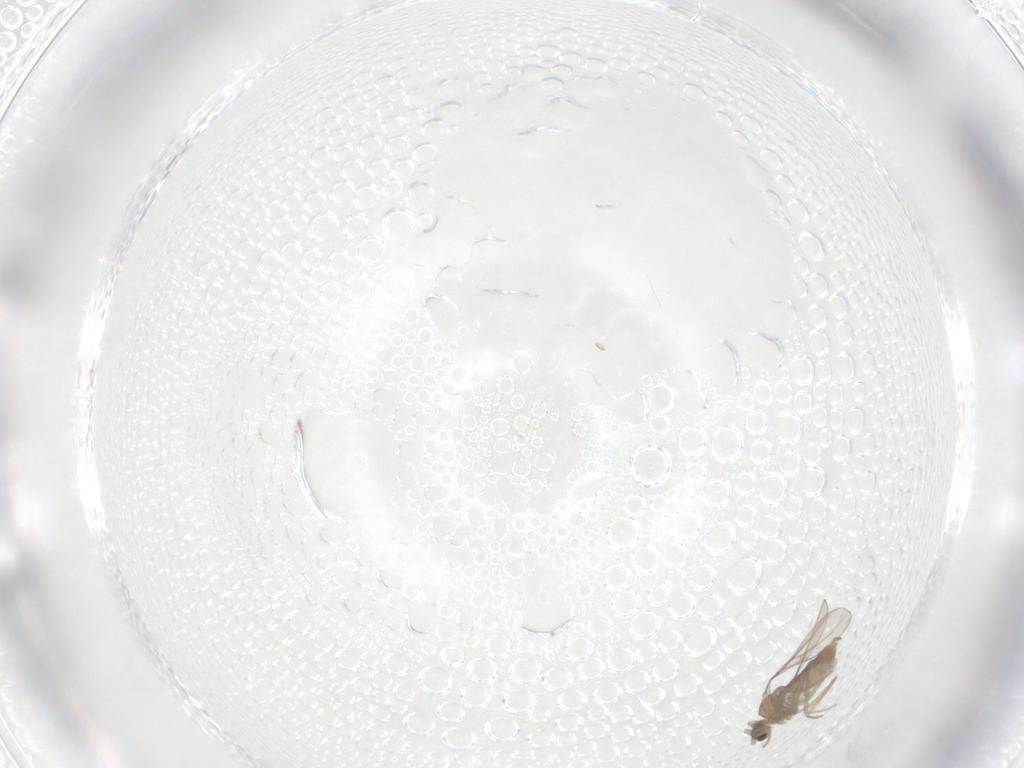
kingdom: Animalia
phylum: Arthropoda
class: Insecta
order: Diptera
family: Cecidomyiidae
